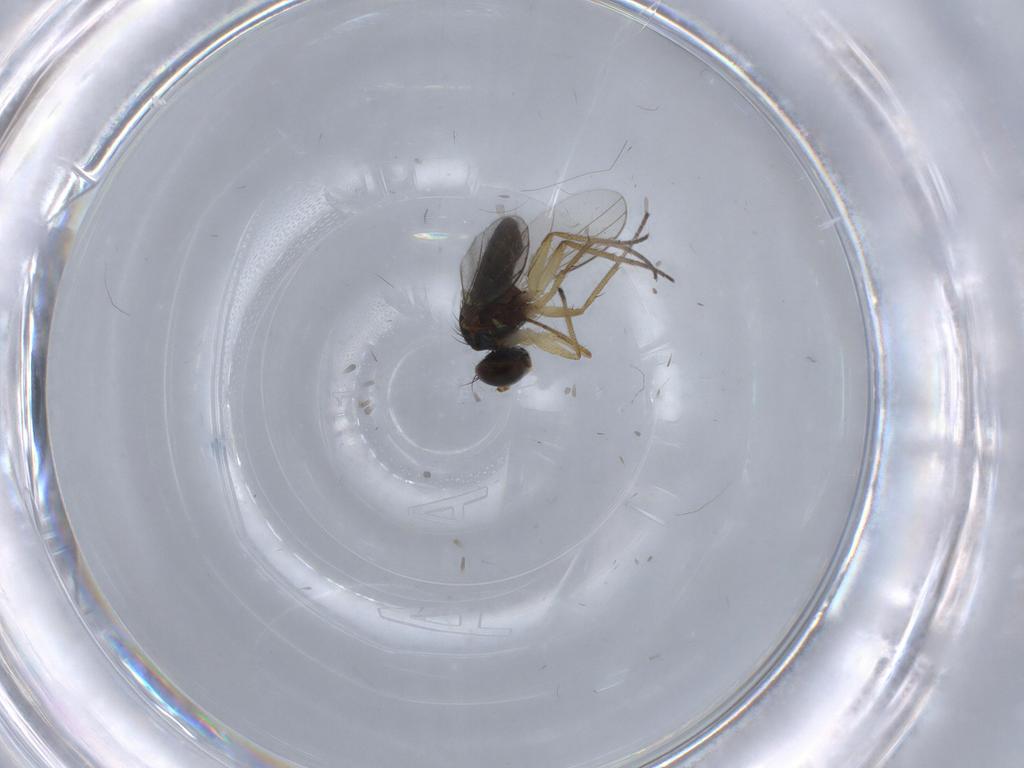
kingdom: Animalia
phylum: Arthropoda
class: Insecta
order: Diptera
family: Dolichopodidae
